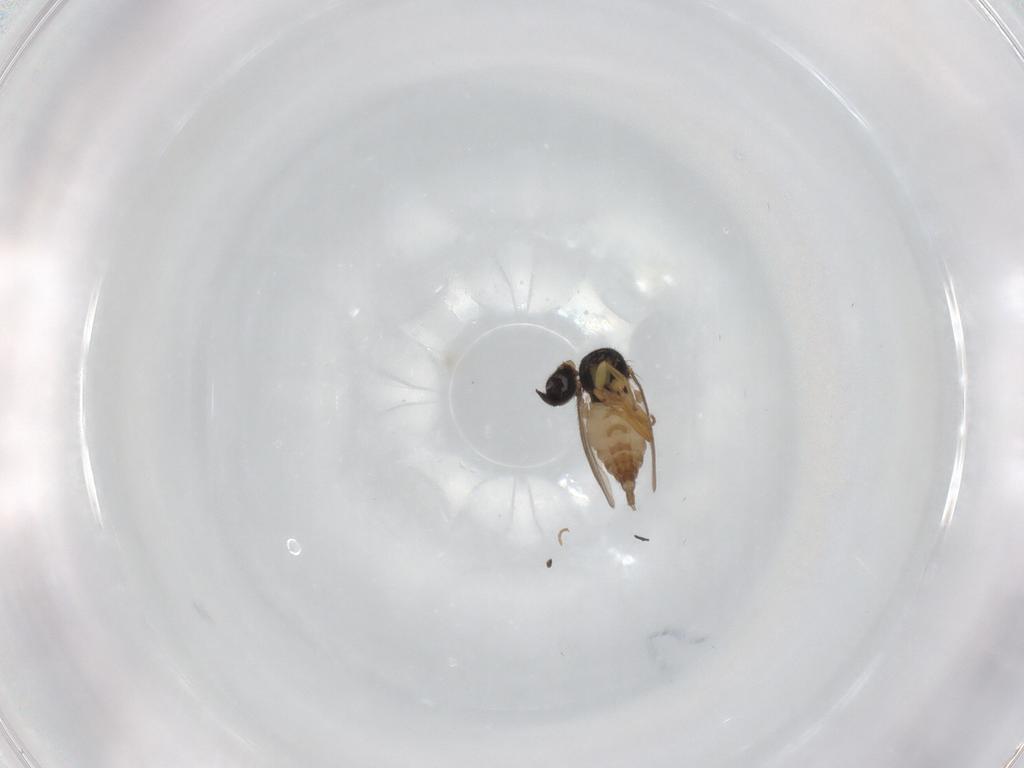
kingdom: Animalia
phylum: Arthropoda
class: Insecta
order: Diptera
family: Hybotidae
